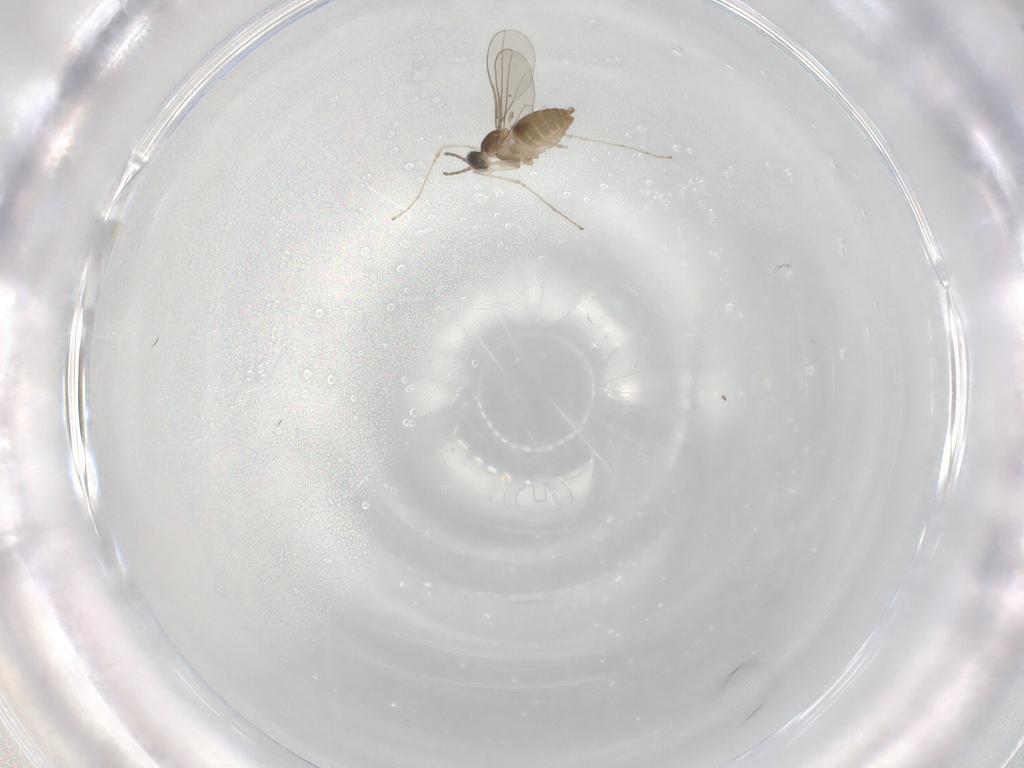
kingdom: Animalia
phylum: Arthropoda
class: Insecta
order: Diptera
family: Cecidomyiidae
